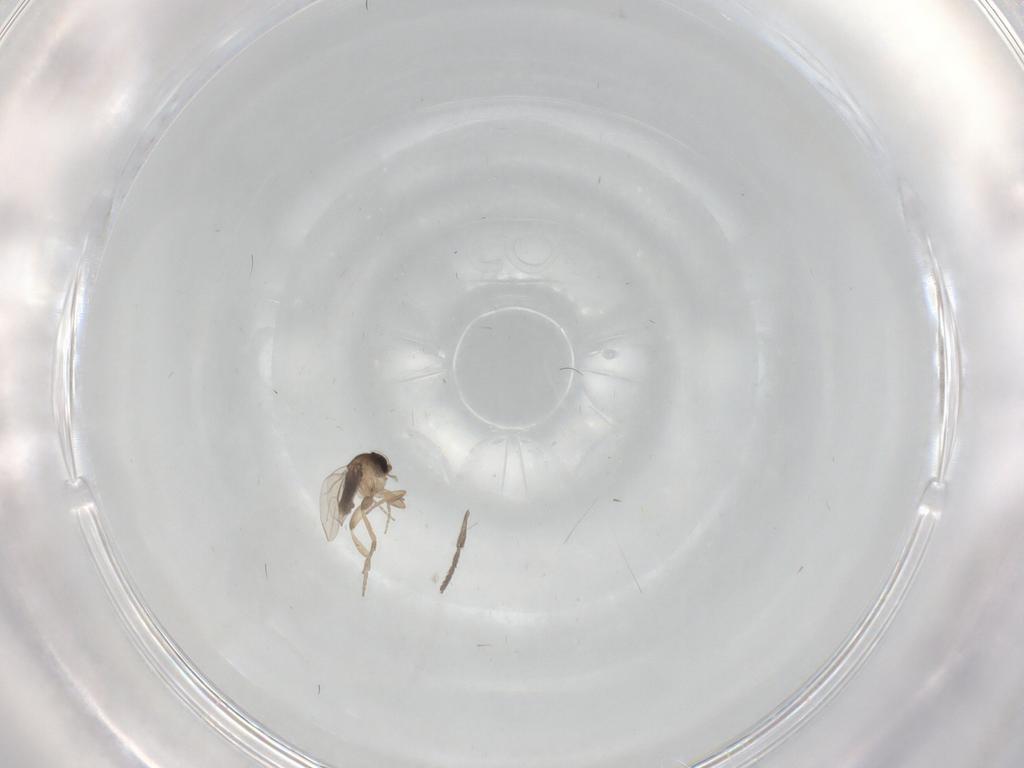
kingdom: Animalia
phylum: Arthropoda
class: Insecta
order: Diptera
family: Limoniidae
